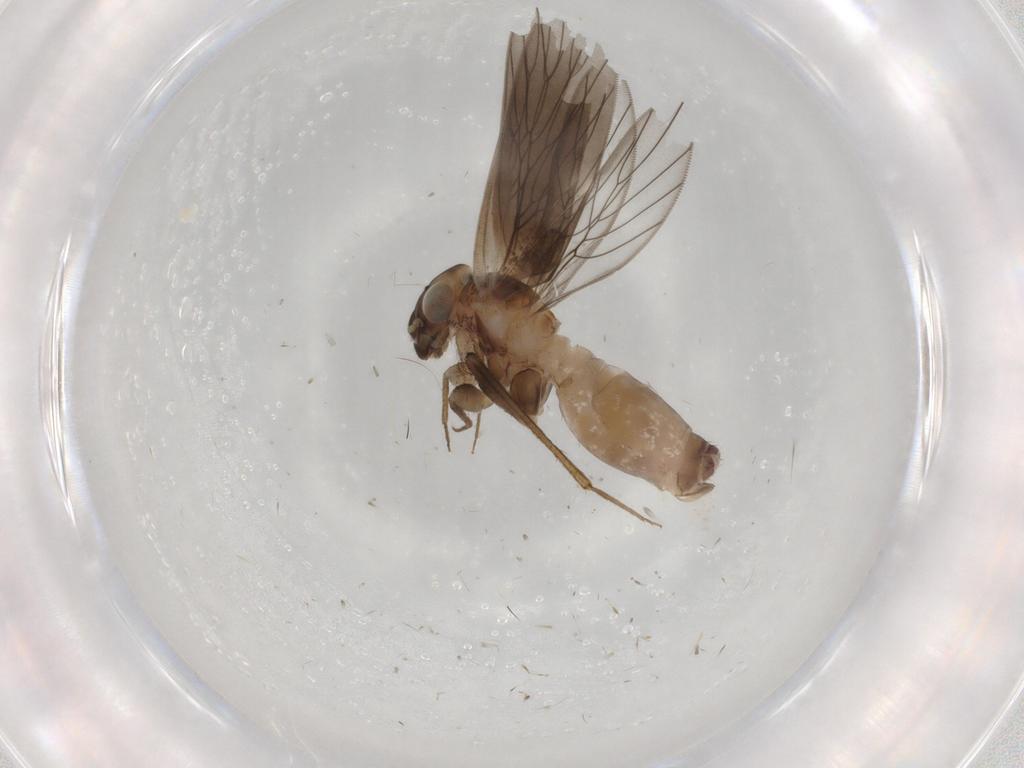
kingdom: Animalia
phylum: Arthropoda
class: Insecta
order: Psocodea
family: Lepidopsocidae
